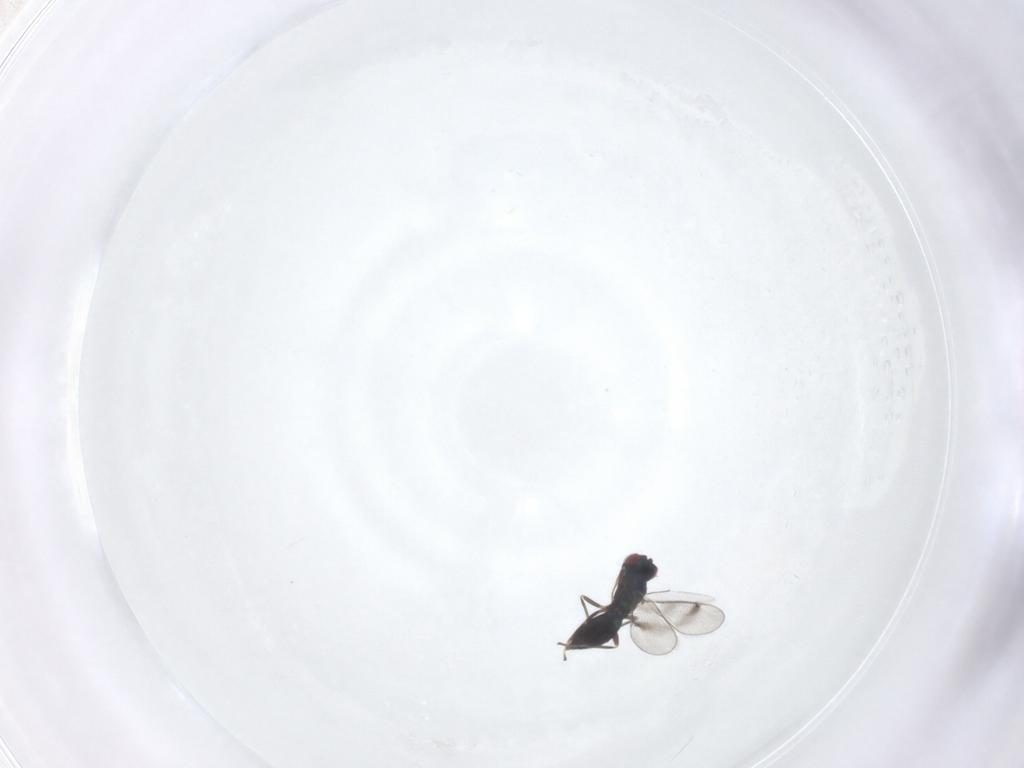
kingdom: Animalia
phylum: Arthropoda
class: Insecta
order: Hymenoptera
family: Eulophidae
